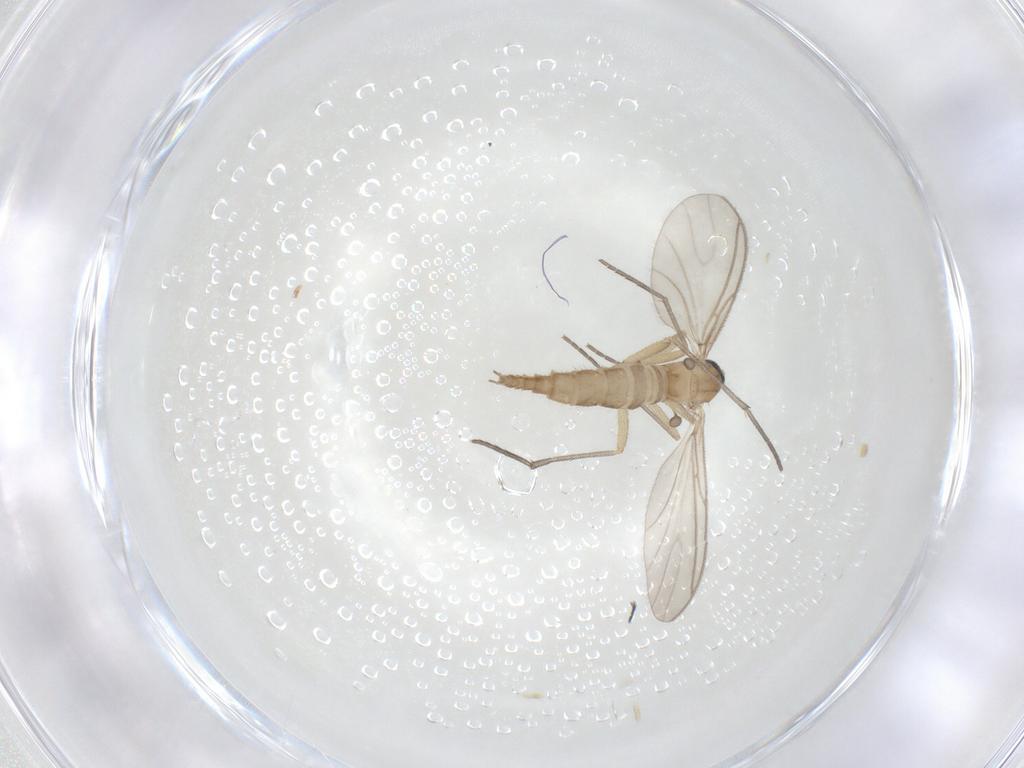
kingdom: Animalia
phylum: Arthropoda
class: Insecta
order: Diptera
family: Sciaridae
